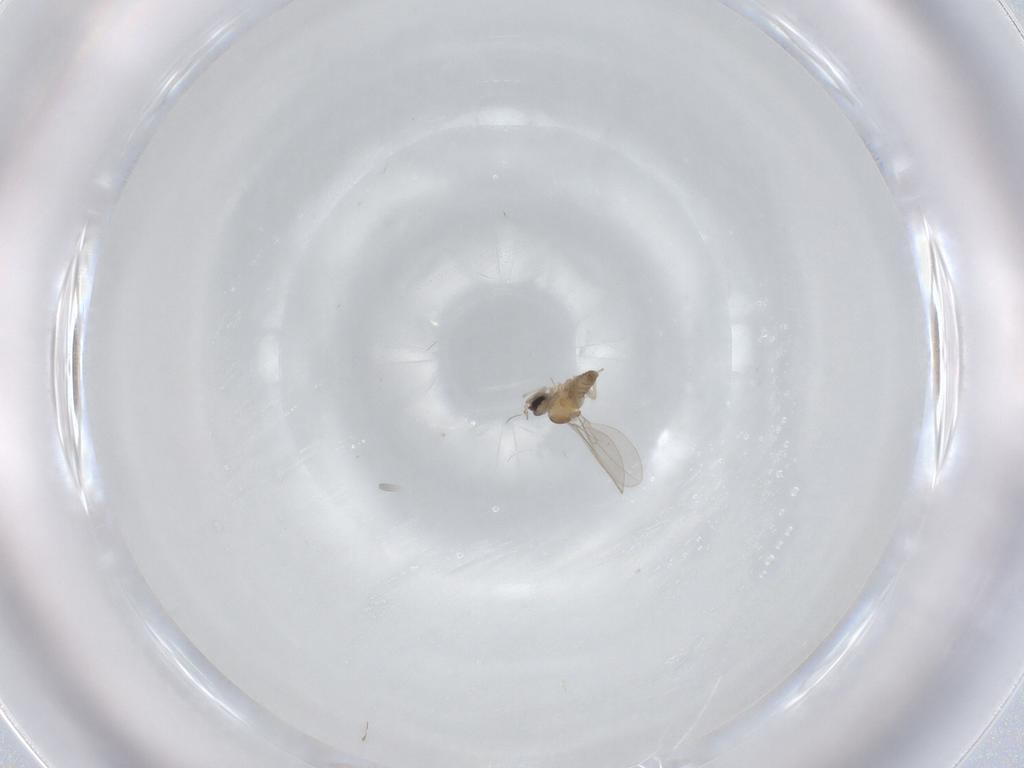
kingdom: Animalia
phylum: Arthropoda
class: Insecta
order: Diptera
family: Cecidomyiidae
